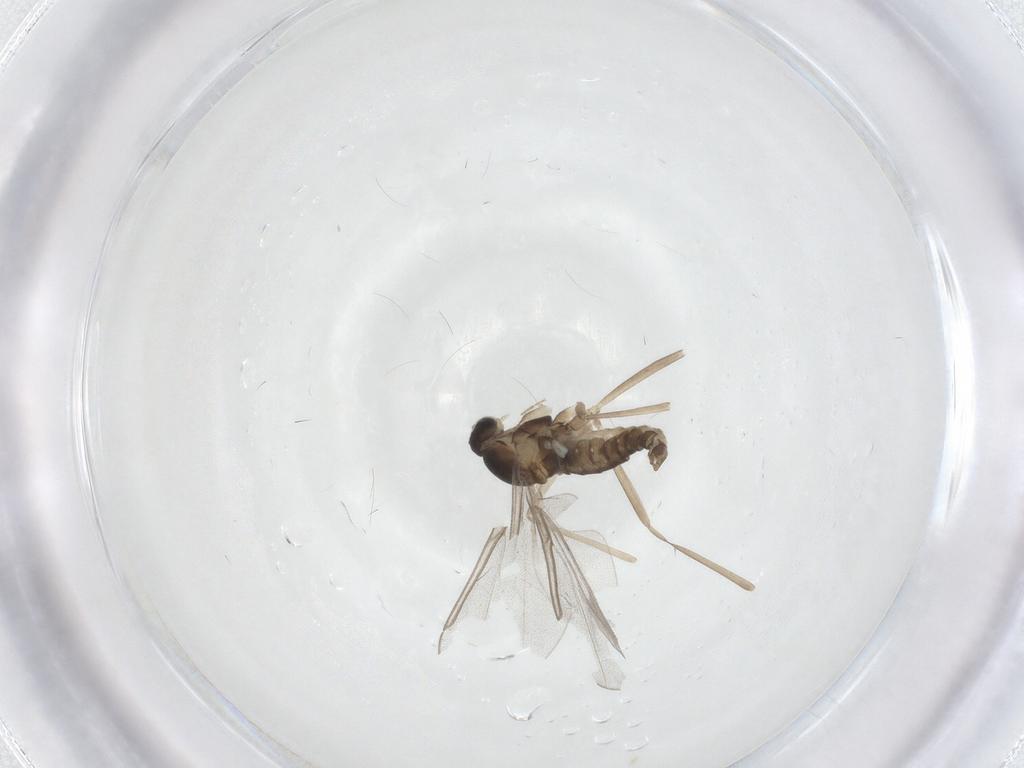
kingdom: Animalia
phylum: Arthropoda
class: Insecta
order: Diptera
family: Cecidomyiidae
